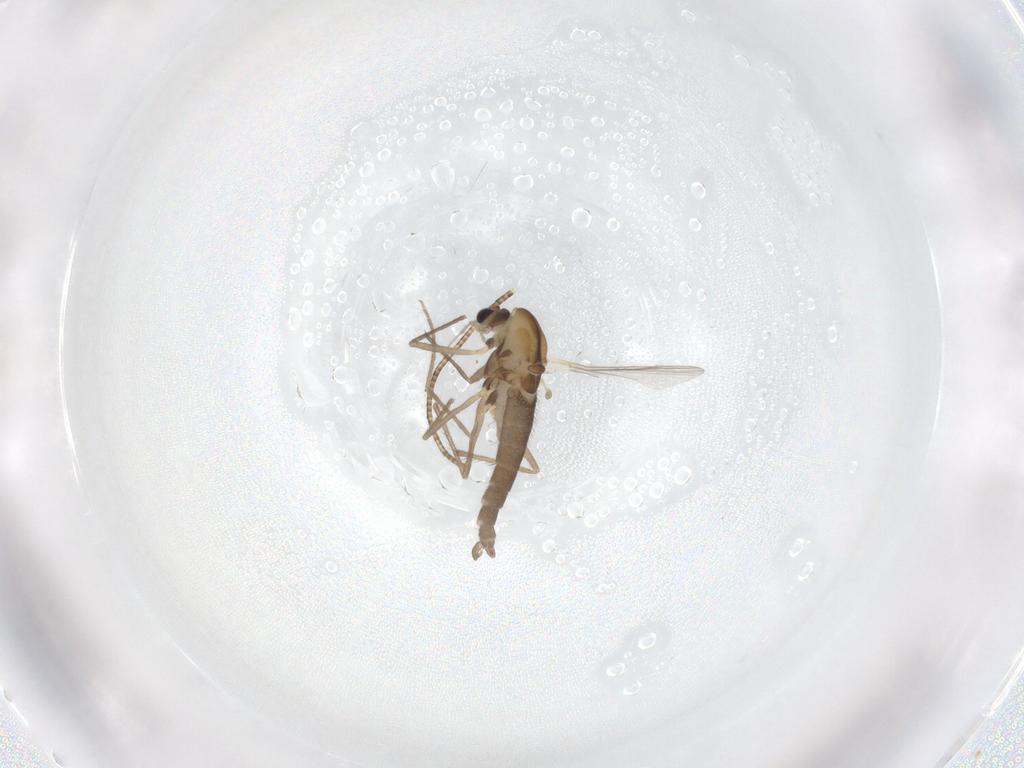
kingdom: Animalia
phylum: Arthropoda
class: Insecta
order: Diptera
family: Chironomidae
